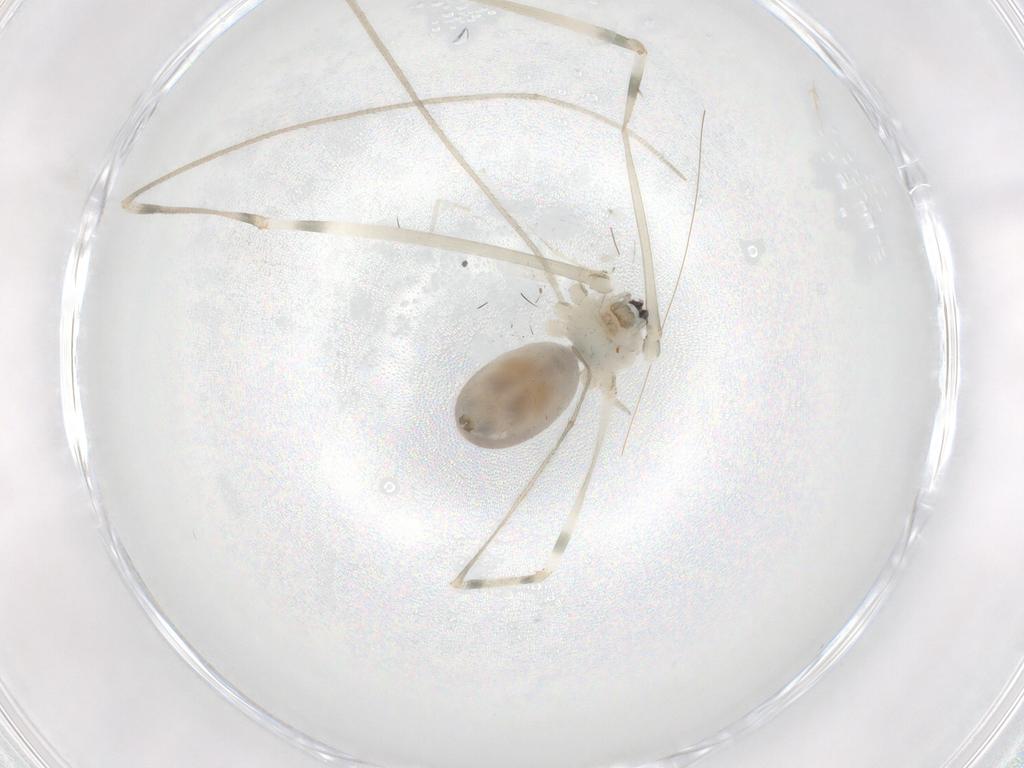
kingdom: Animalia
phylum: Arthropoda
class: Arachnida
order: Araneae
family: Pholcidae
